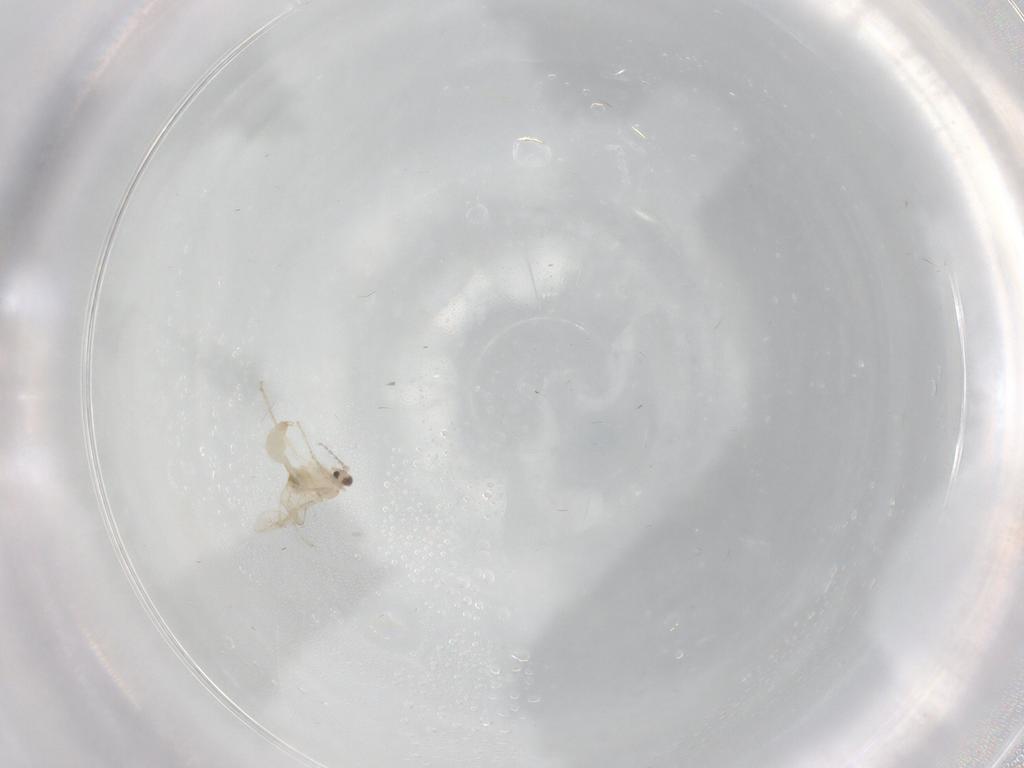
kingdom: Animalia
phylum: Arthropoda
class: Insecta
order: Diptera
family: Cecidomyiidae
